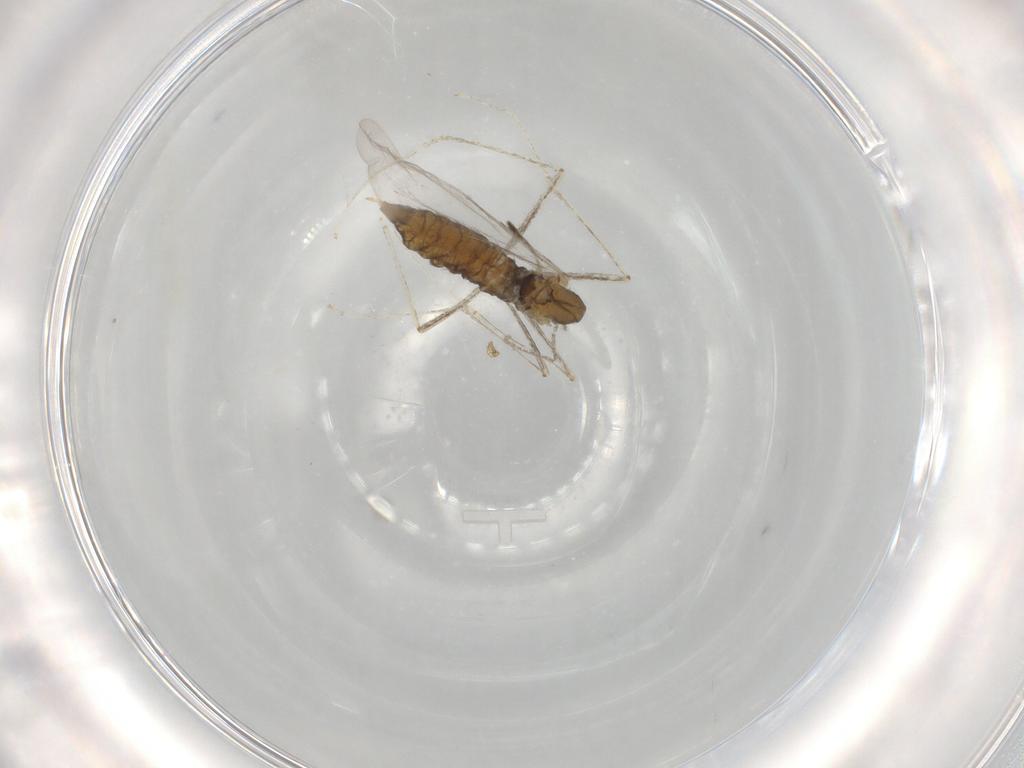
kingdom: Animalia
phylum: Arthropoda
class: Insecta
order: Diptera
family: Cecidomyiidae
